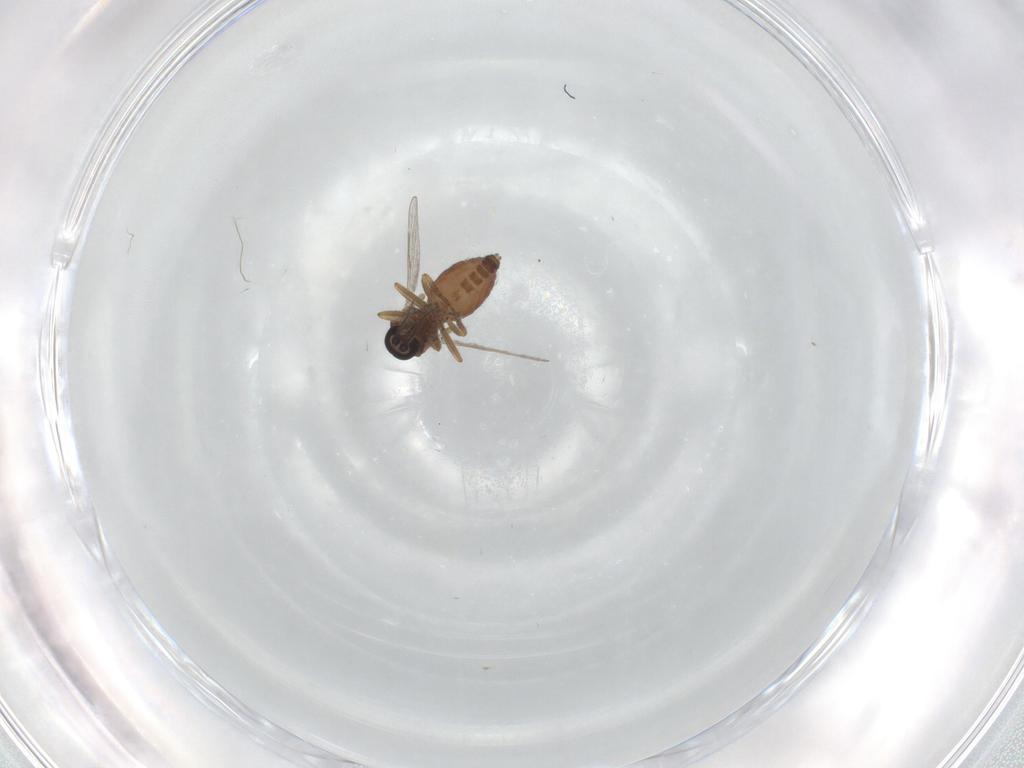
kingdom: Animalia
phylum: Arthropoda
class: Insecta
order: Diptera
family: Ceratopogonidae
